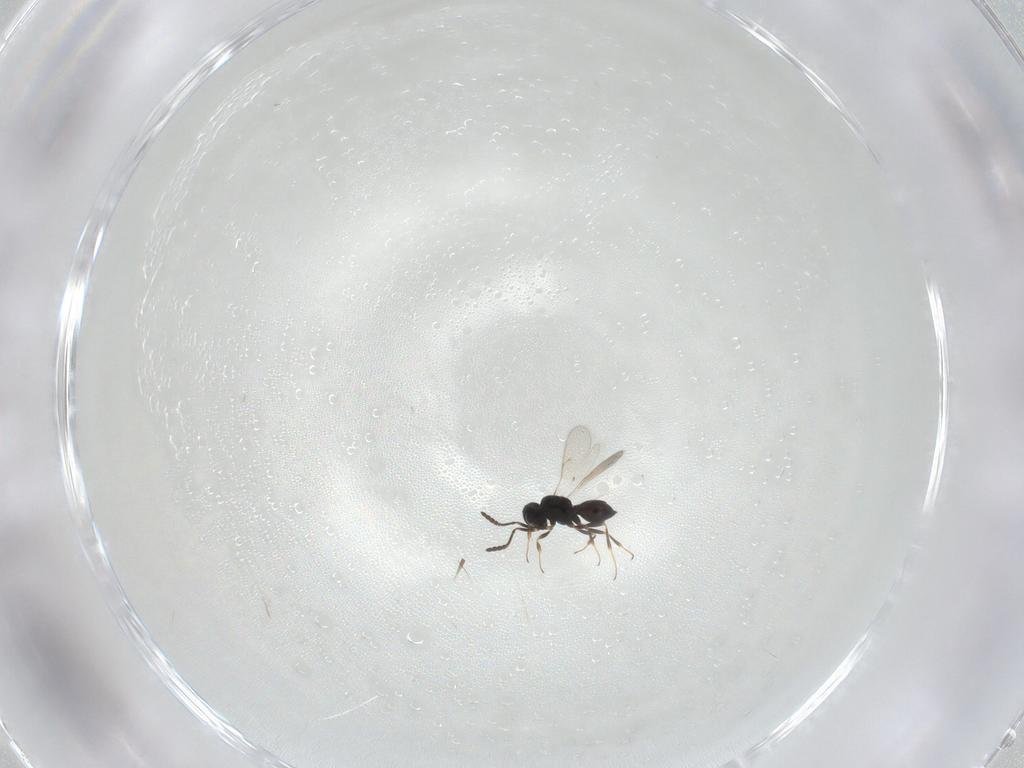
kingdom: Animalia
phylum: Arthropoda
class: Insecta
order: Hymenoptera
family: Scelionidae
